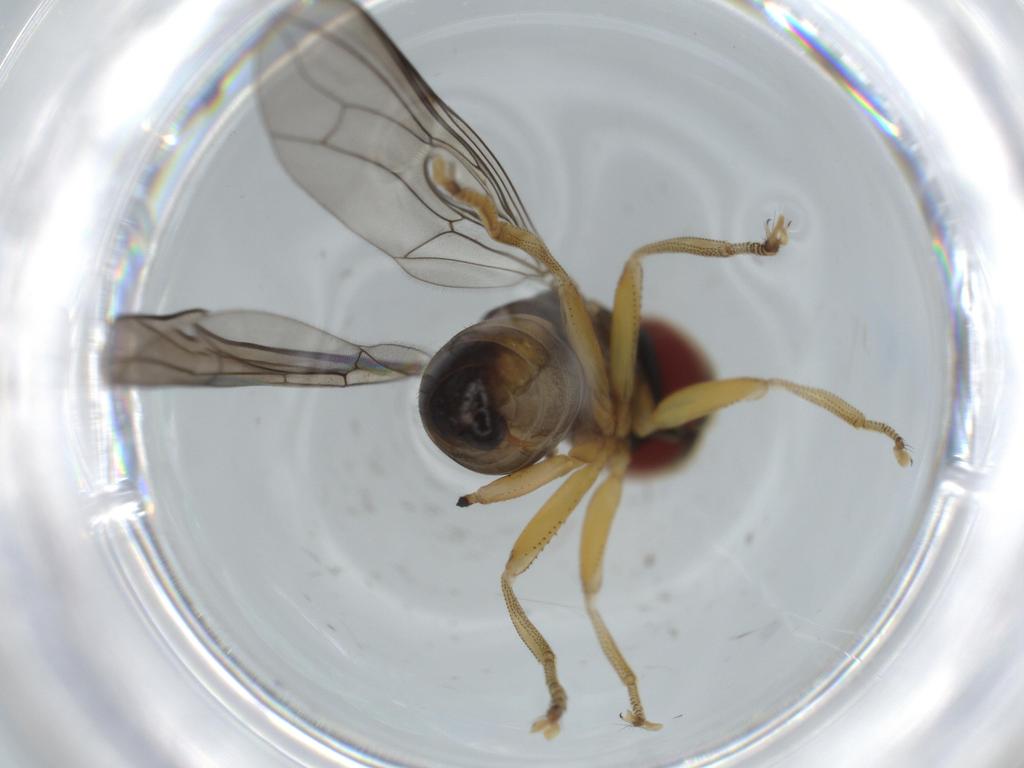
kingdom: Animalia
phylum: Arthropoda
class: Insecta
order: Diptera
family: Pipunculidae
